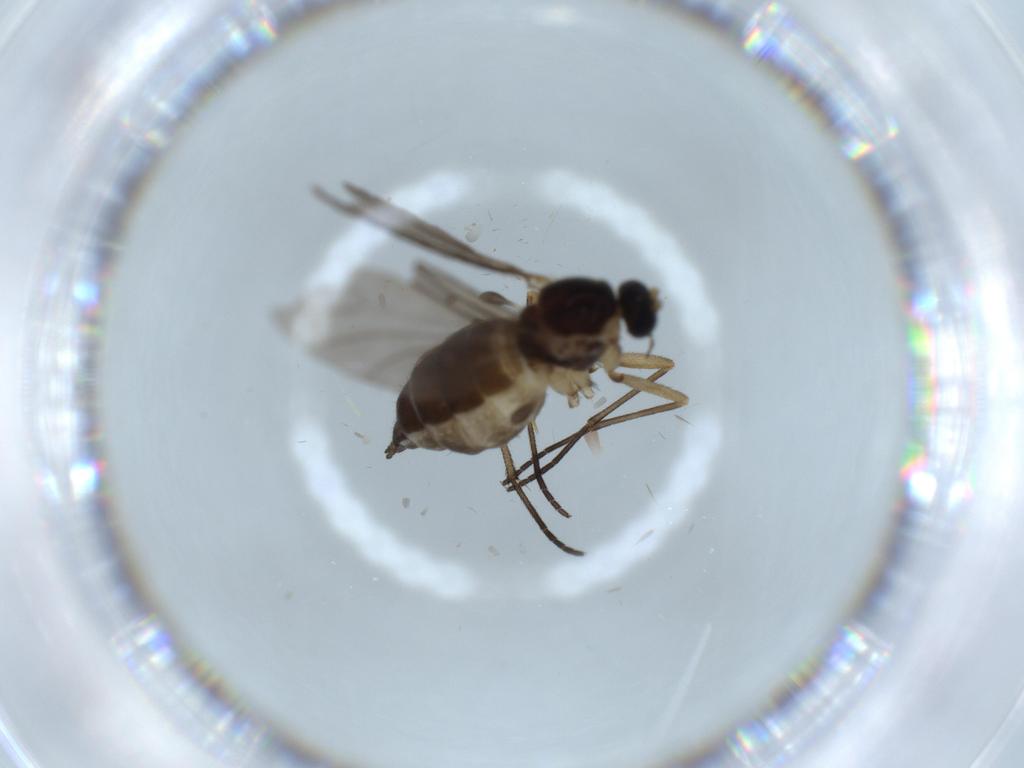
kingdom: Animalia
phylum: Arthropoda
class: Insecta
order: Diptera
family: Sciaridae
